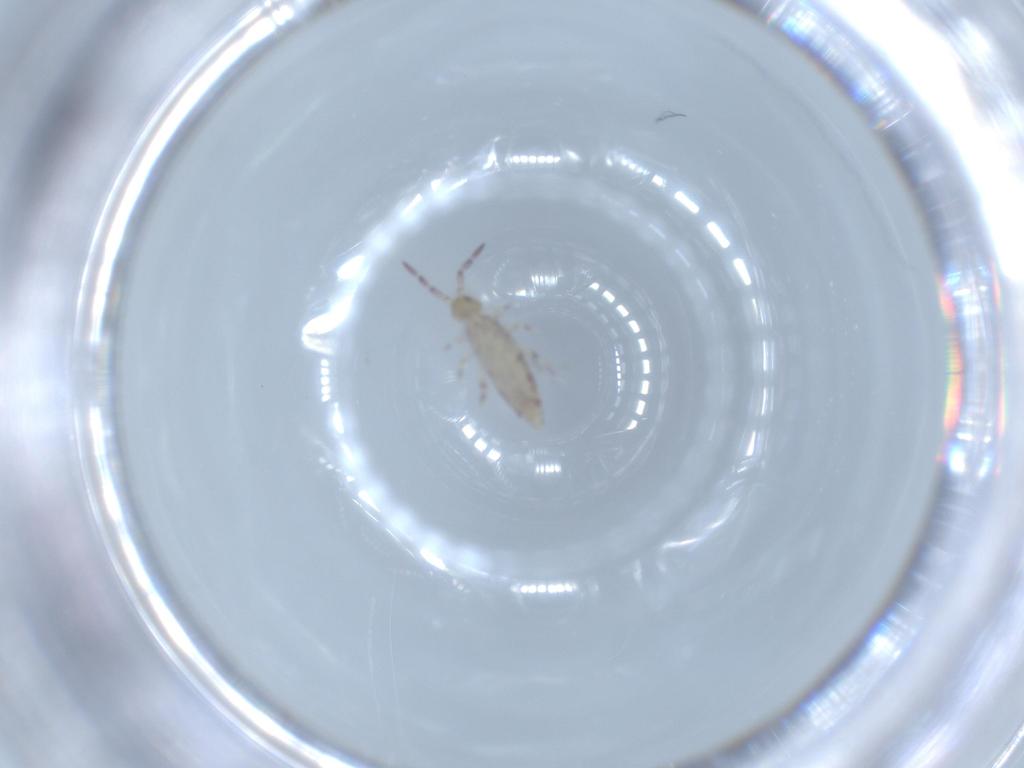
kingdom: Animalia
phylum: Arthropoda
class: Collembola
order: Entomobryomorpha
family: Entomobryidae
